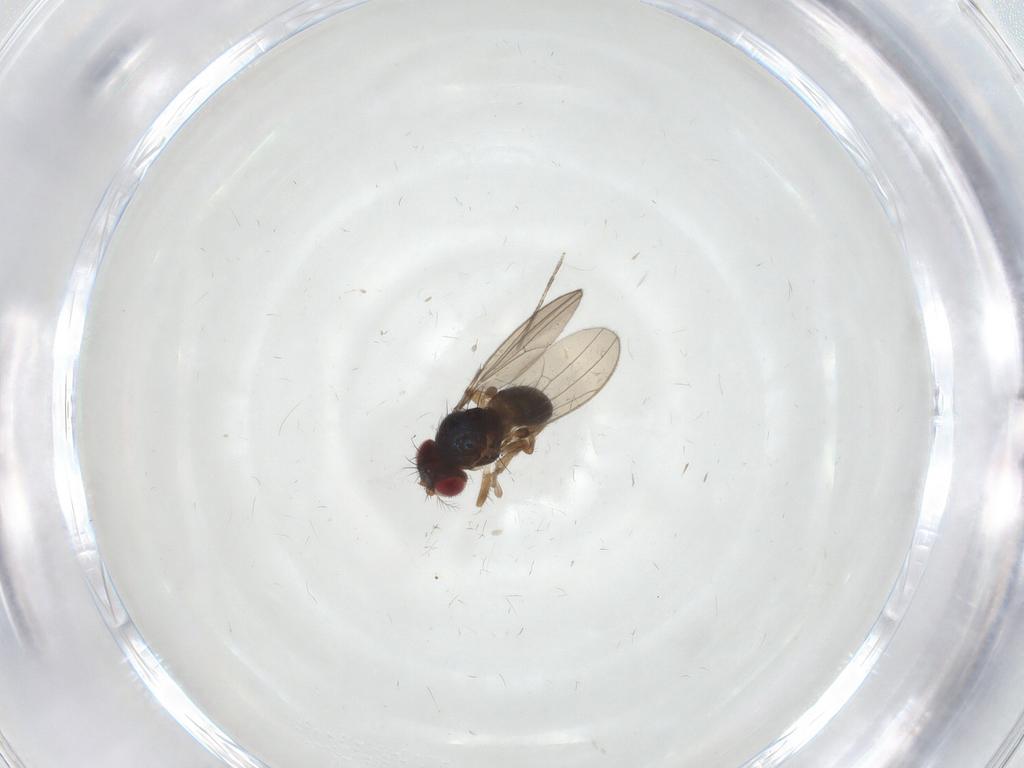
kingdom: Animalia
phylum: Arthropoda
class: Insecta
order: Diptera
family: Drosophilidae
